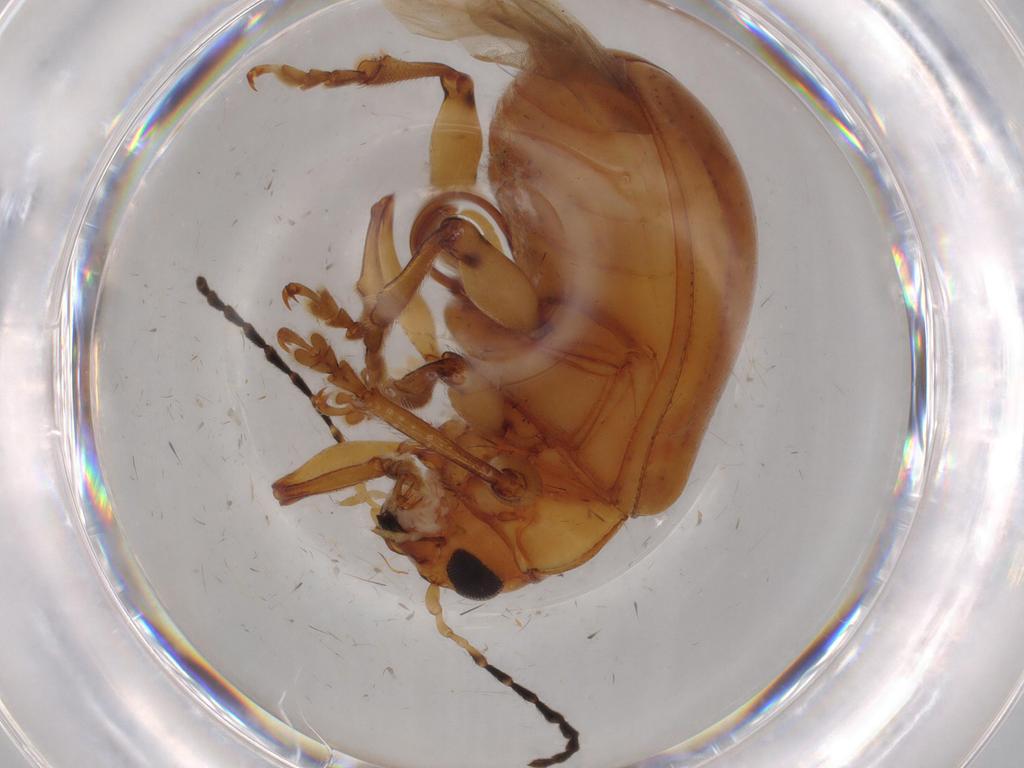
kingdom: Animalia
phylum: Arthropoda
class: Insecta
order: Coleoptera
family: Chrysomelidae
